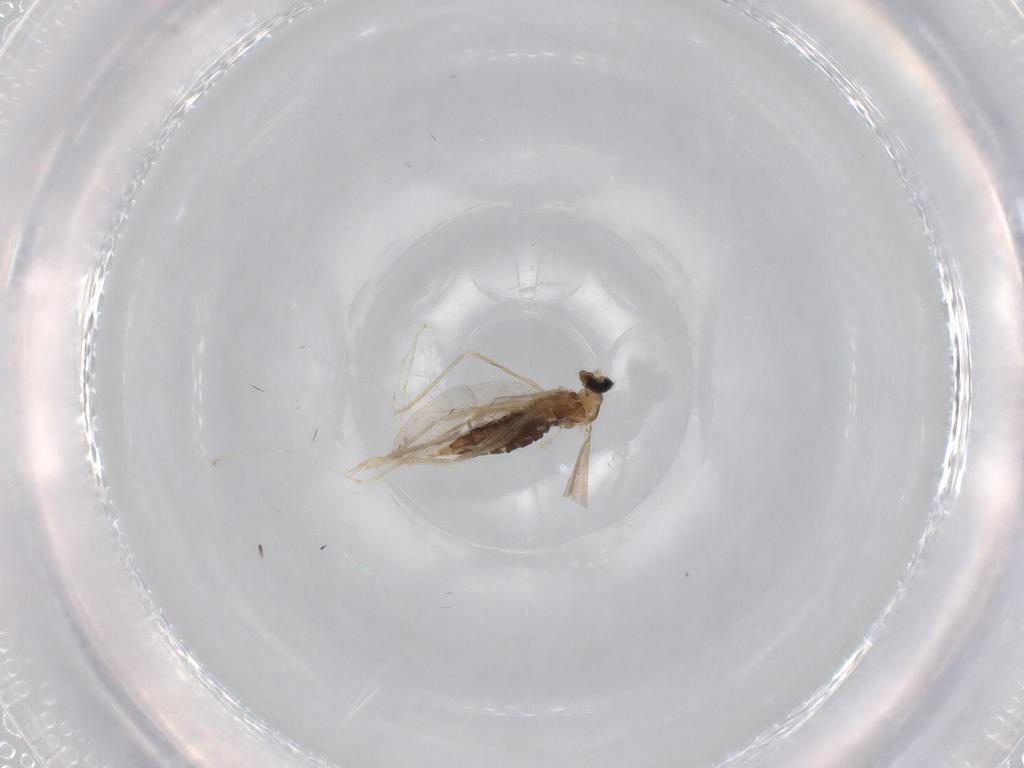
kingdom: Animalia
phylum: Arthropoda
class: Insecta
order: Diptera
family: Cecidomyiidae
